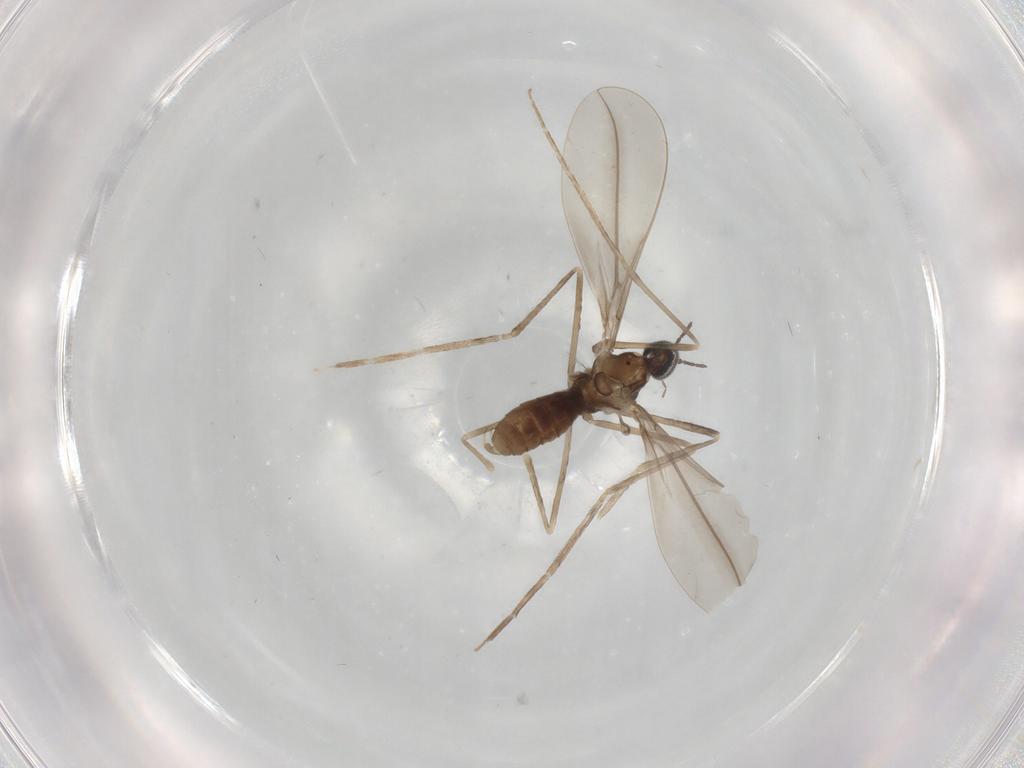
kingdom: Animalia
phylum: Arthropoda
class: Insecta
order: Diptera
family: Cecidomyiidae
